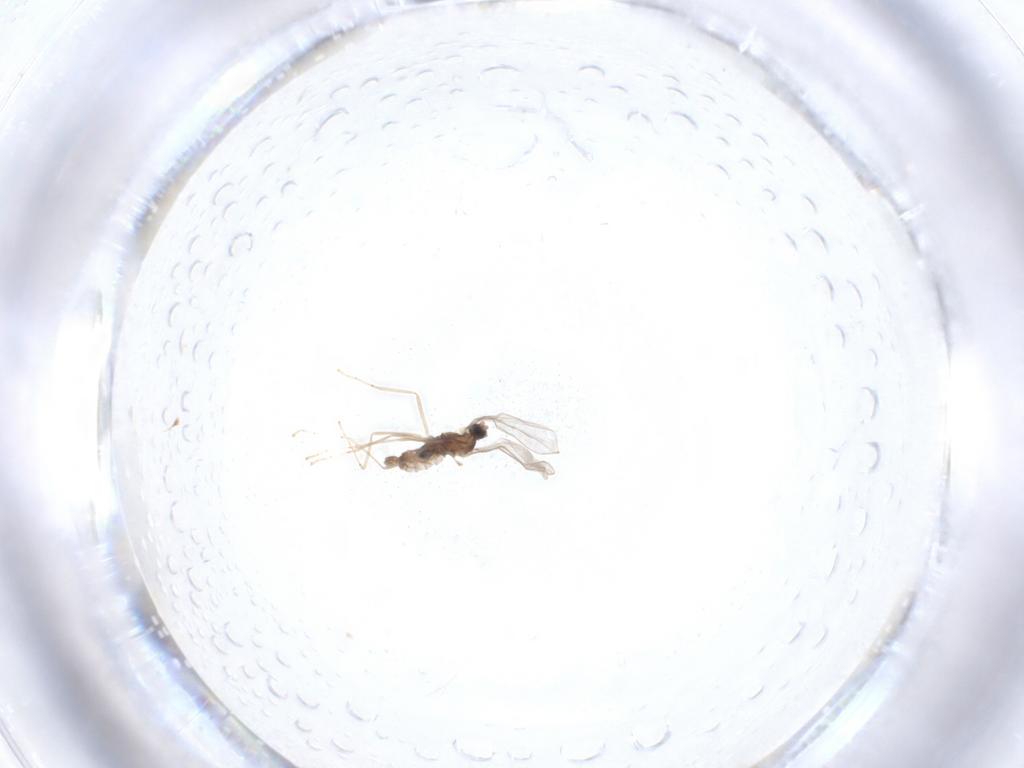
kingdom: Animalia
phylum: Arthropoda
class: Insecta
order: Diptera
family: Cecidomyiidae
